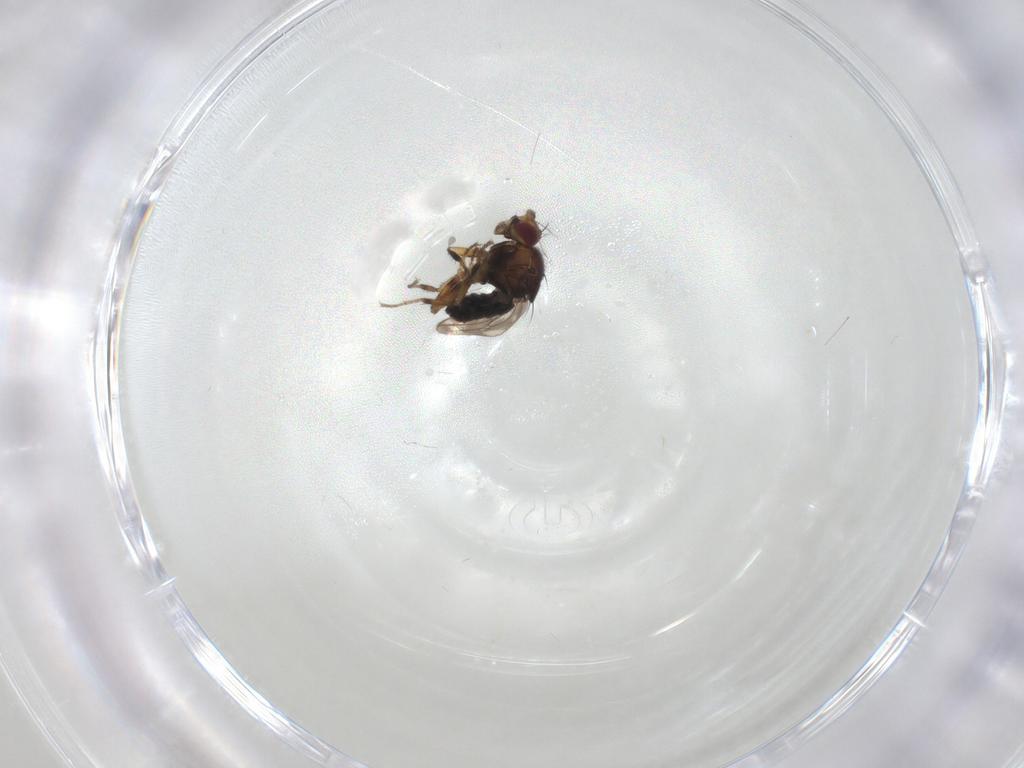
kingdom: Animalia
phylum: Arthropoda
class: Insecta
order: Diptera
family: Sphaeroceridae
